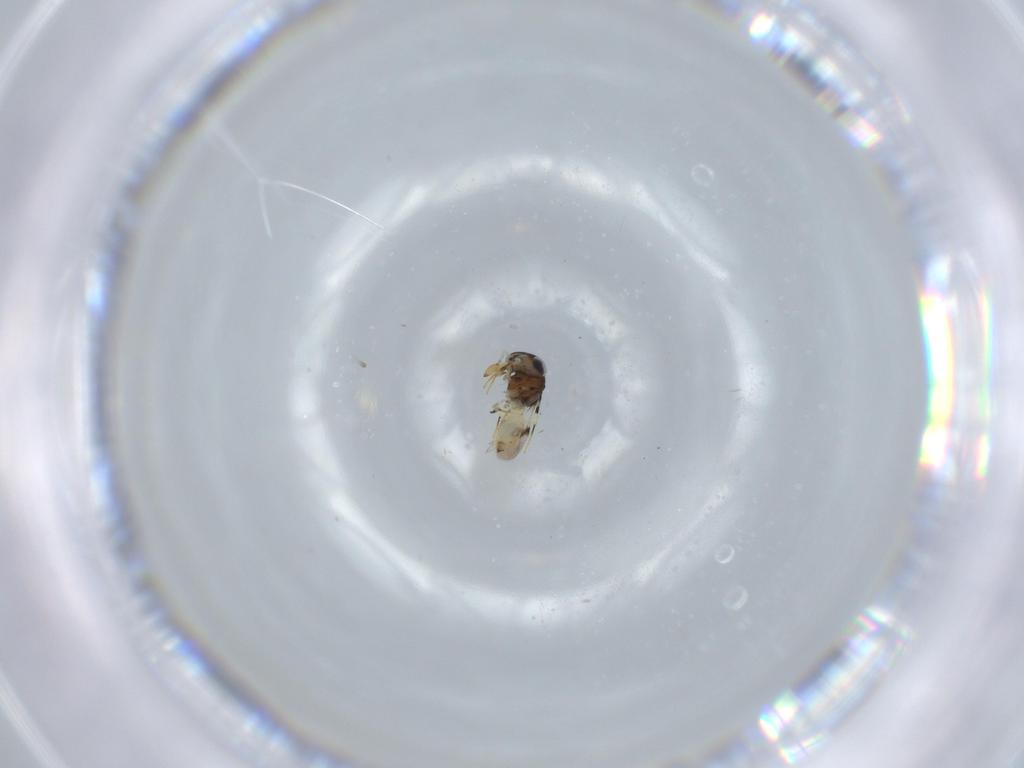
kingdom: Animalia
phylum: Arthropoda
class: Insecta
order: Hymenoptera
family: Scelionidae
